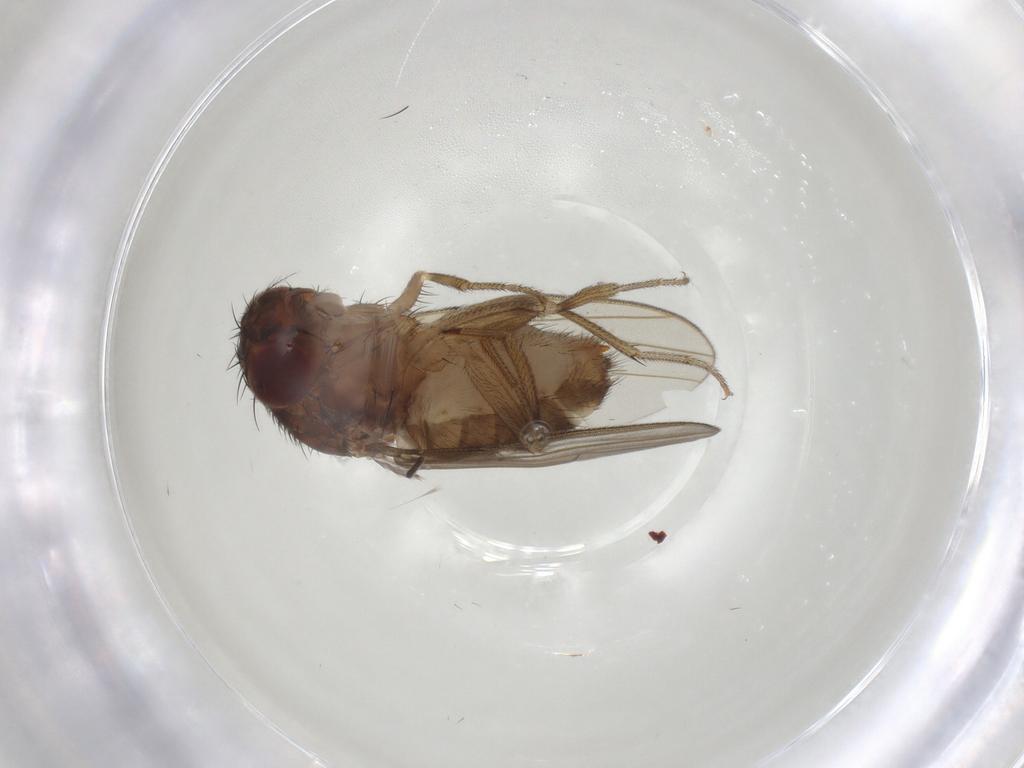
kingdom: Animalia
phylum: Arthropoda
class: Insecta
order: Diptera
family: Drosophilidae
